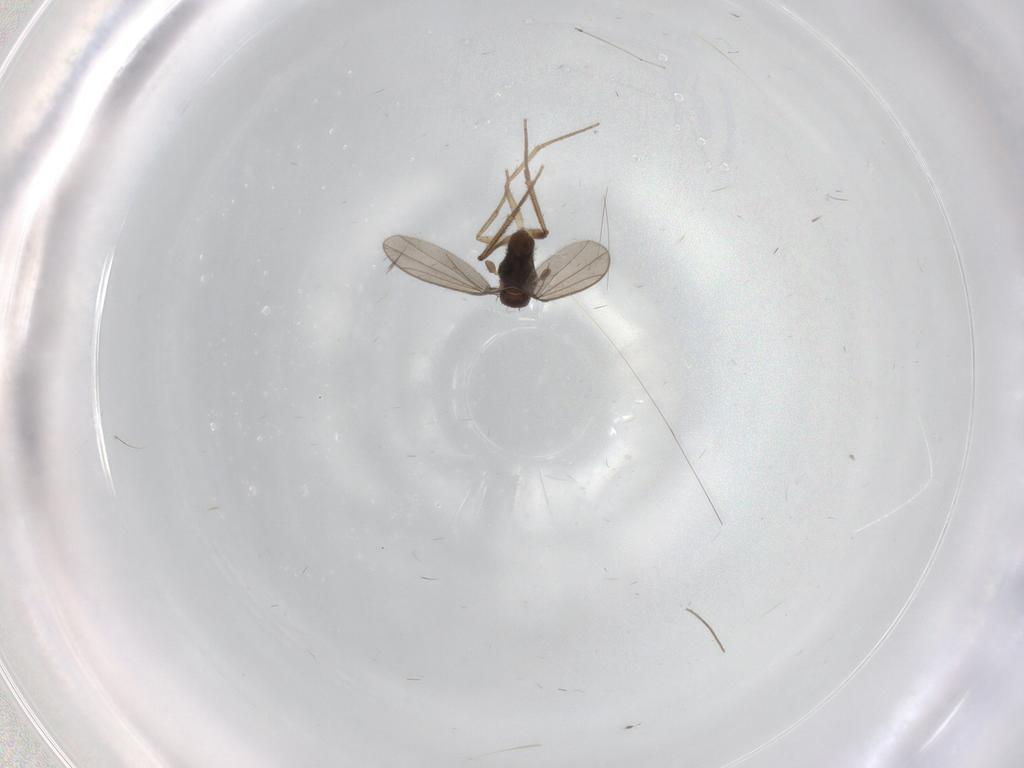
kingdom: Animalia
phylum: Arthropoda
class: Insecta
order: Diptera
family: Dolichopodidae
